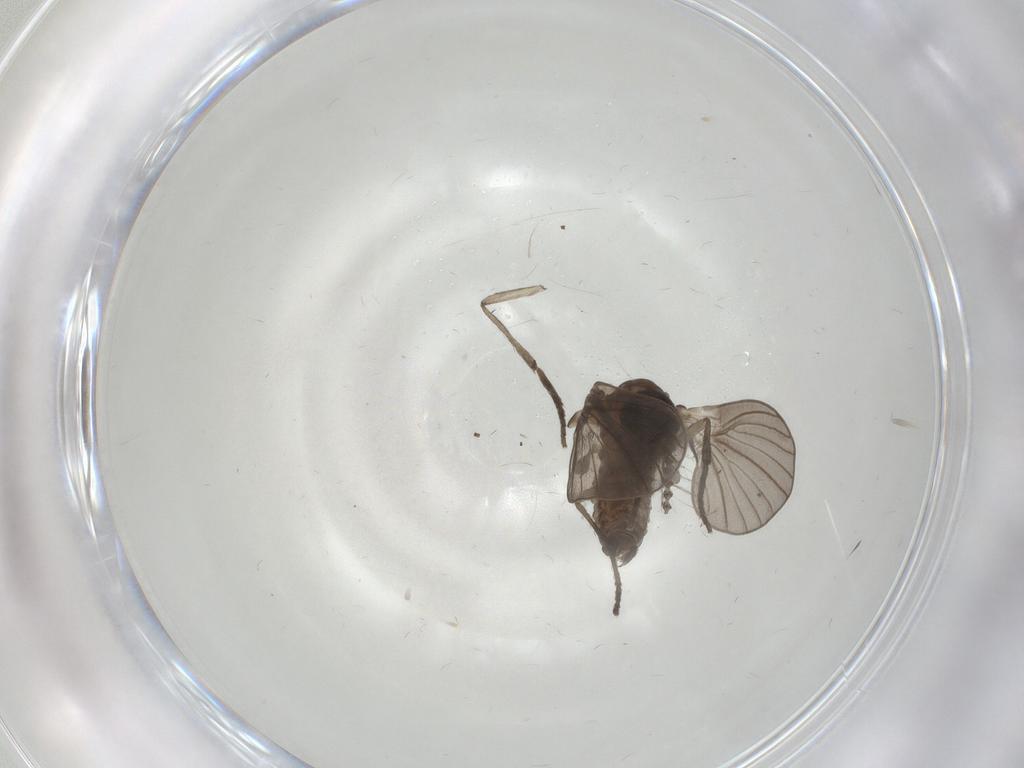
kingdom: Animalia
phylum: Arthropoda
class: Insecta
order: Diptera
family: Psychodidae
